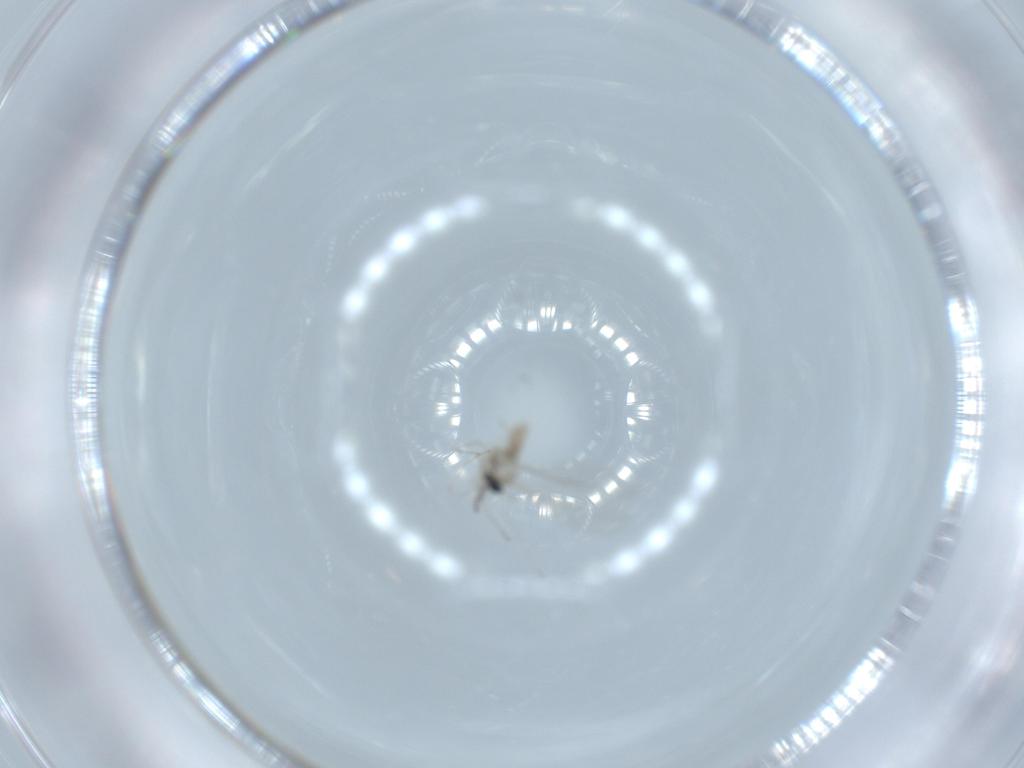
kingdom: Animalia
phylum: Arthropoda
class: Insecta
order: Diptera
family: Cecidomyiidae
